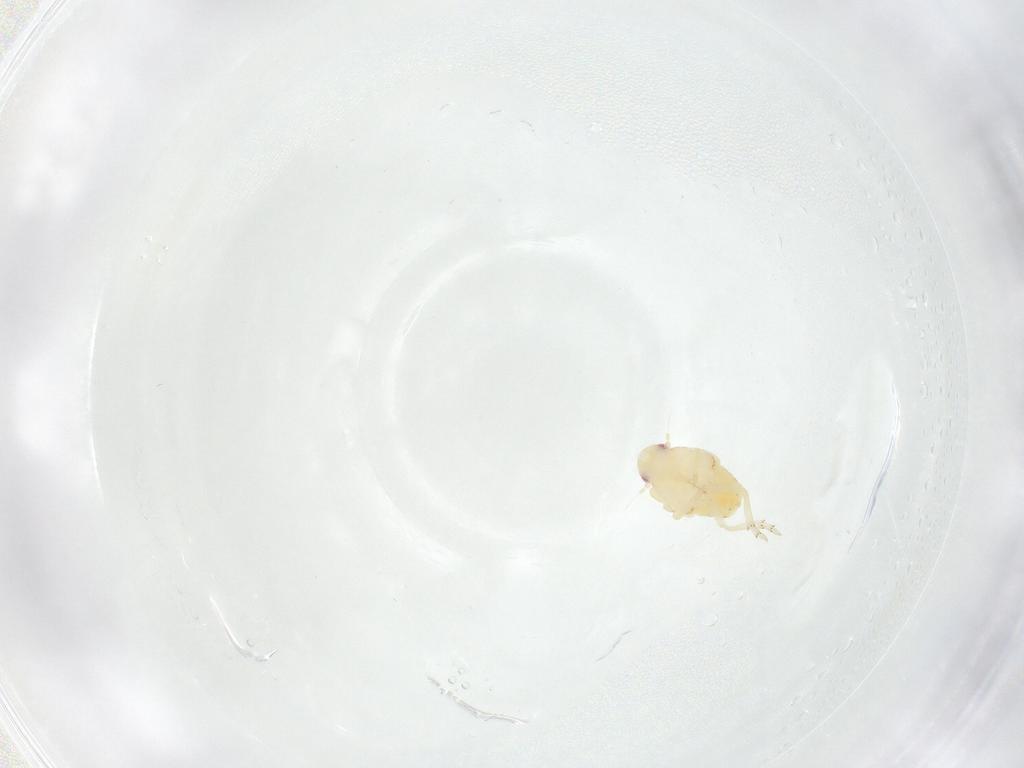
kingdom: Animalia
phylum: Arthropoda
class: Insecta
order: Hemiptera
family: Flatidae
